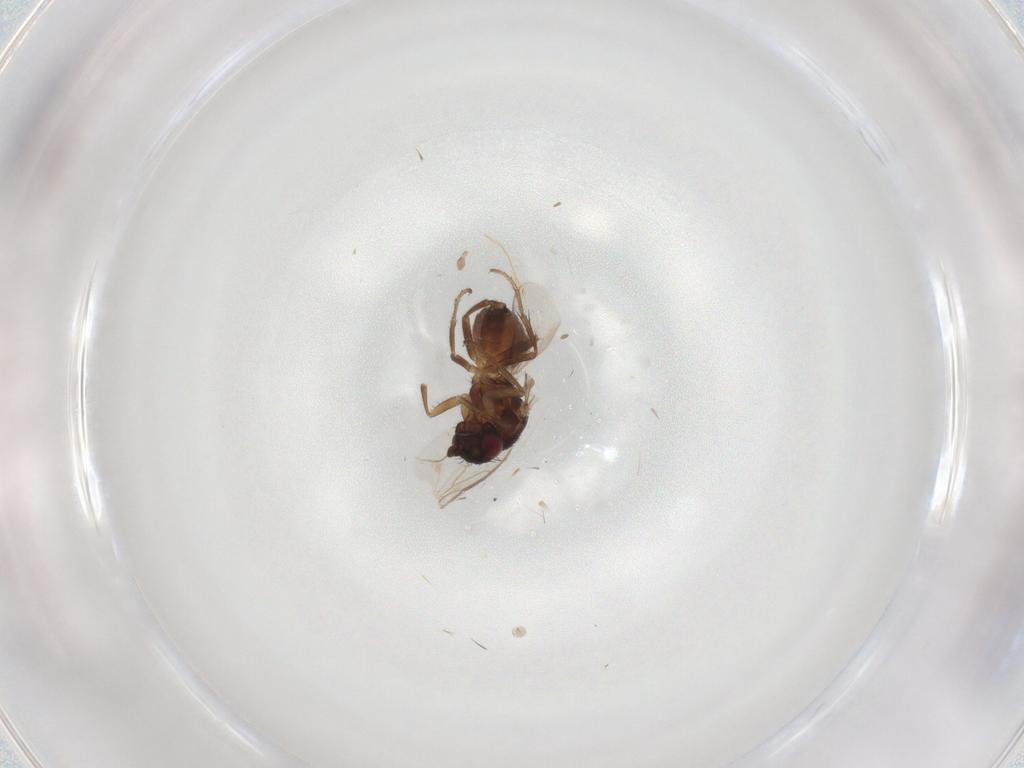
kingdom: Animalia
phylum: Arthropoda
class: Insecta
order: Diptera
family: Sphaeroceridae
